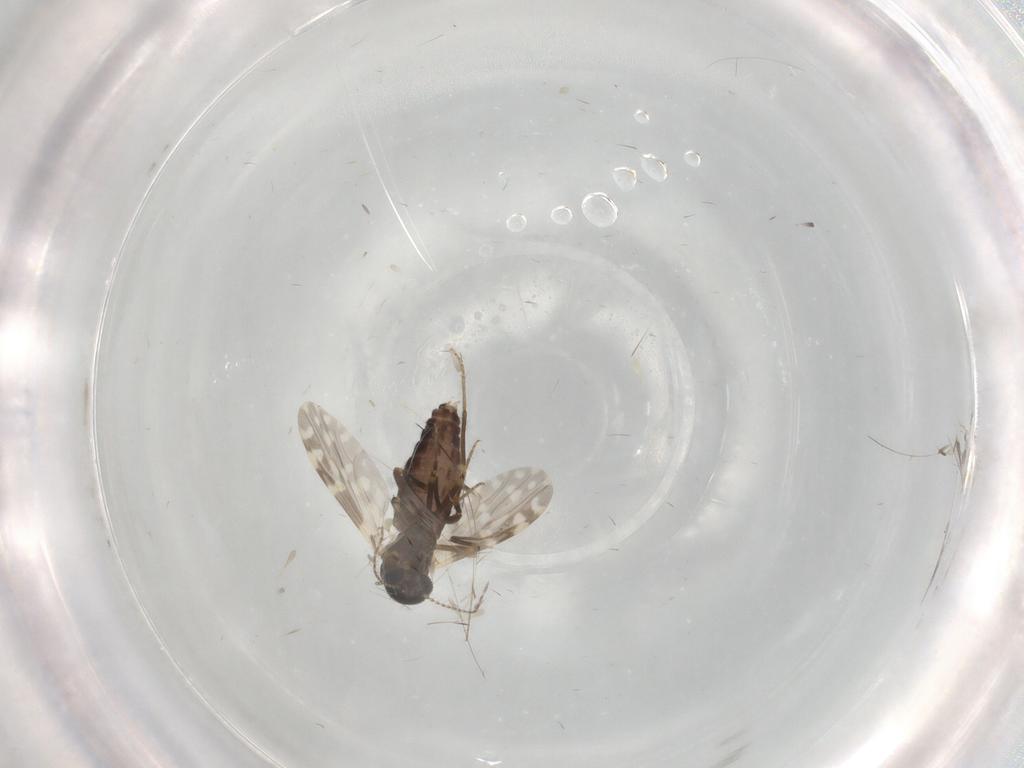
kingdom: Animalia
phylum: Arthropoda
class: Insecta
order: Diptera
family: Ceratopogonidae
